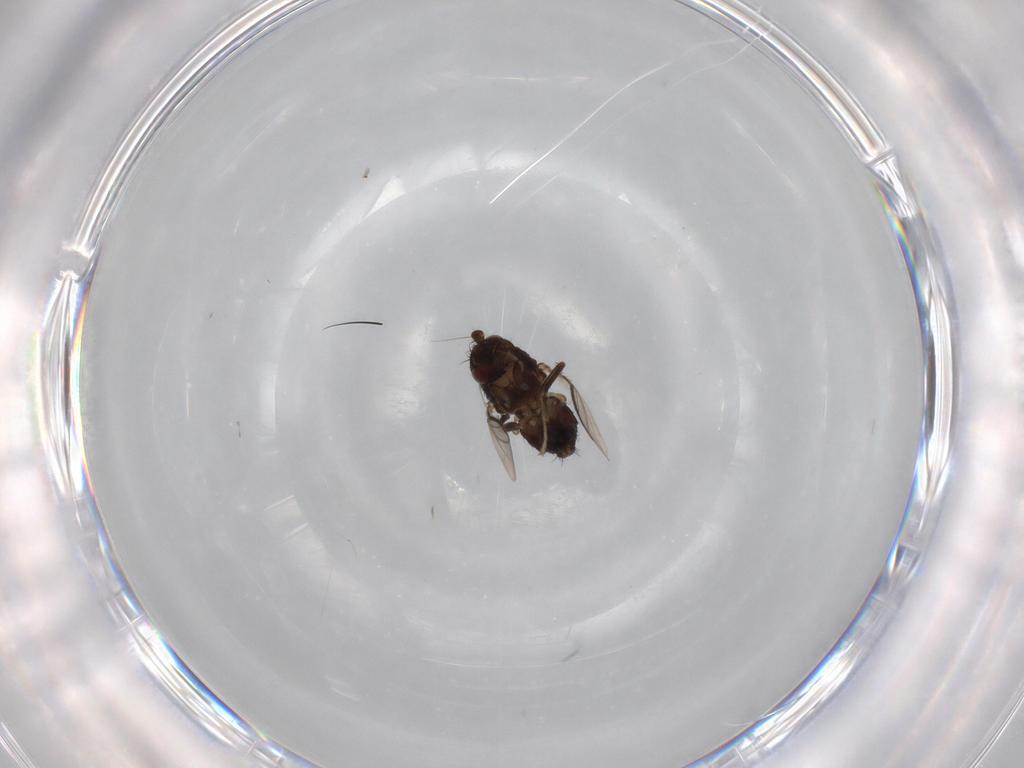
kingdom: Animalia
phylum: Arthropoda
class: Insecta
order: Diptera
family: Sphaeroceridae
